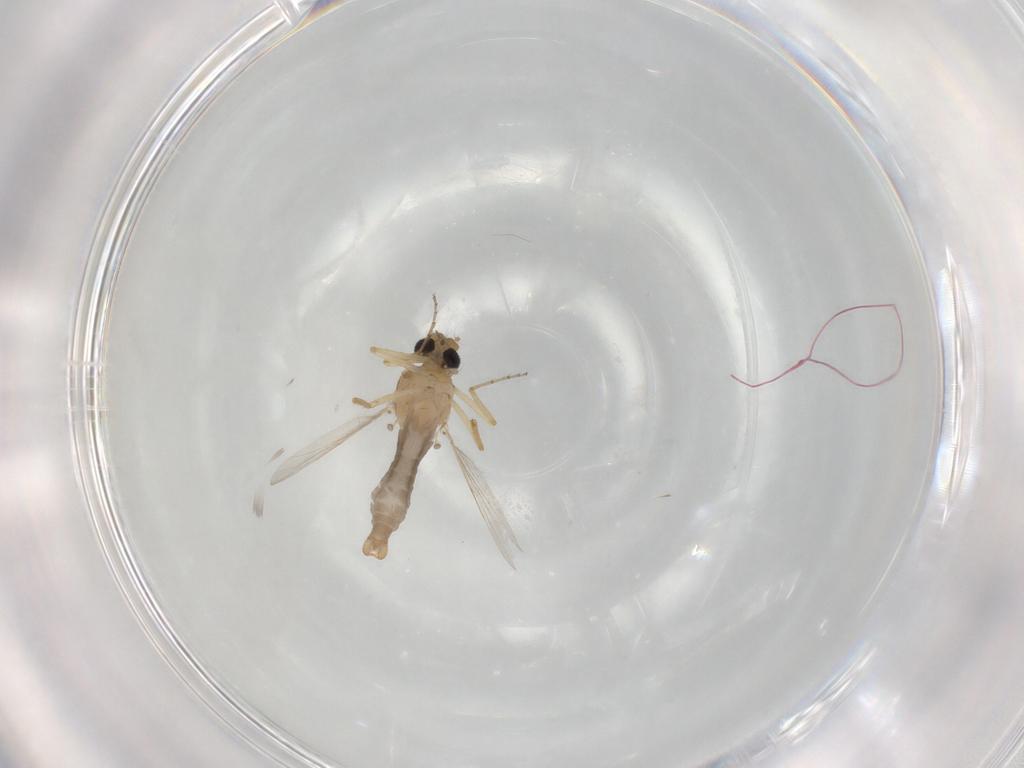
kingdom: Animalia
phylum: Arthropoda
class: Insecta
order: Diptera
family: Ceratopogonidae
